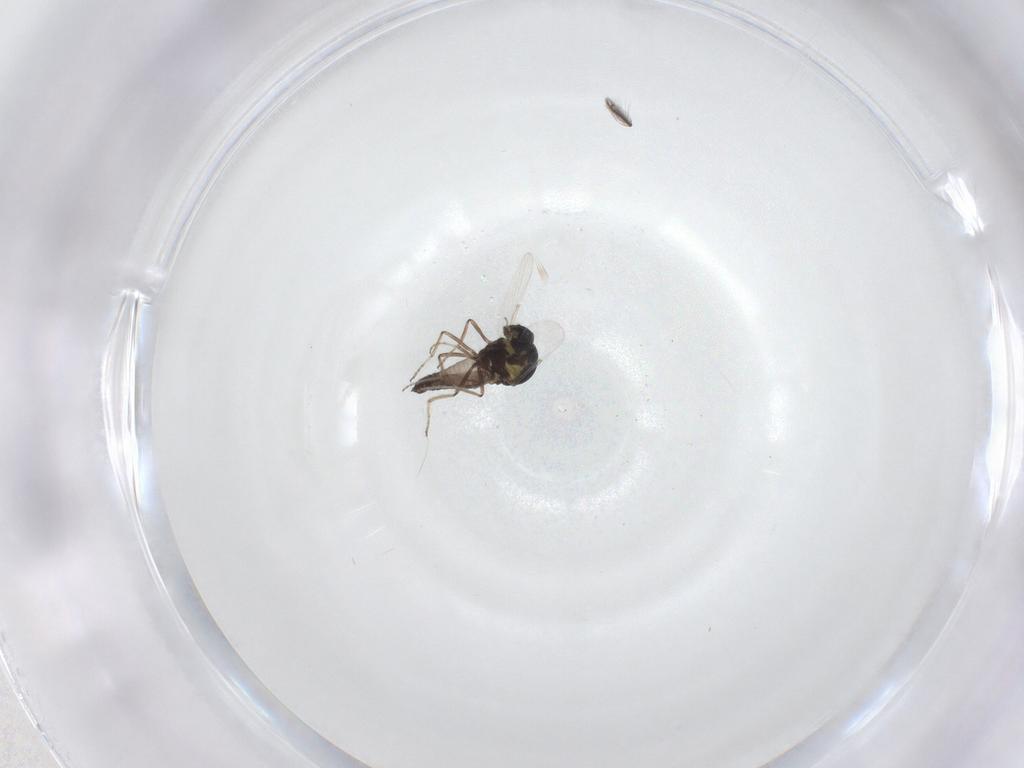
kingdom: Animalia
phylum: Arthropoda
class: Insecta
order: Diptera
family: Ceratopogonidae
